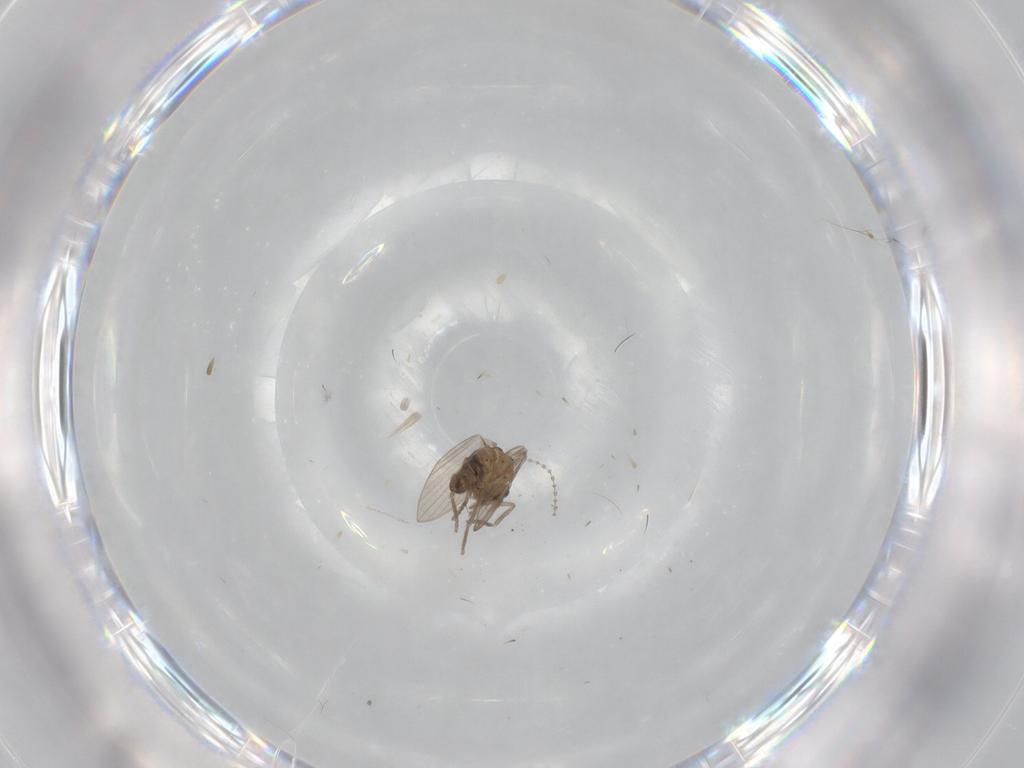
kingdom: Animalia
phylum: Arthropoda
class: Insecta
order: Diptera
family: Psychodidae
